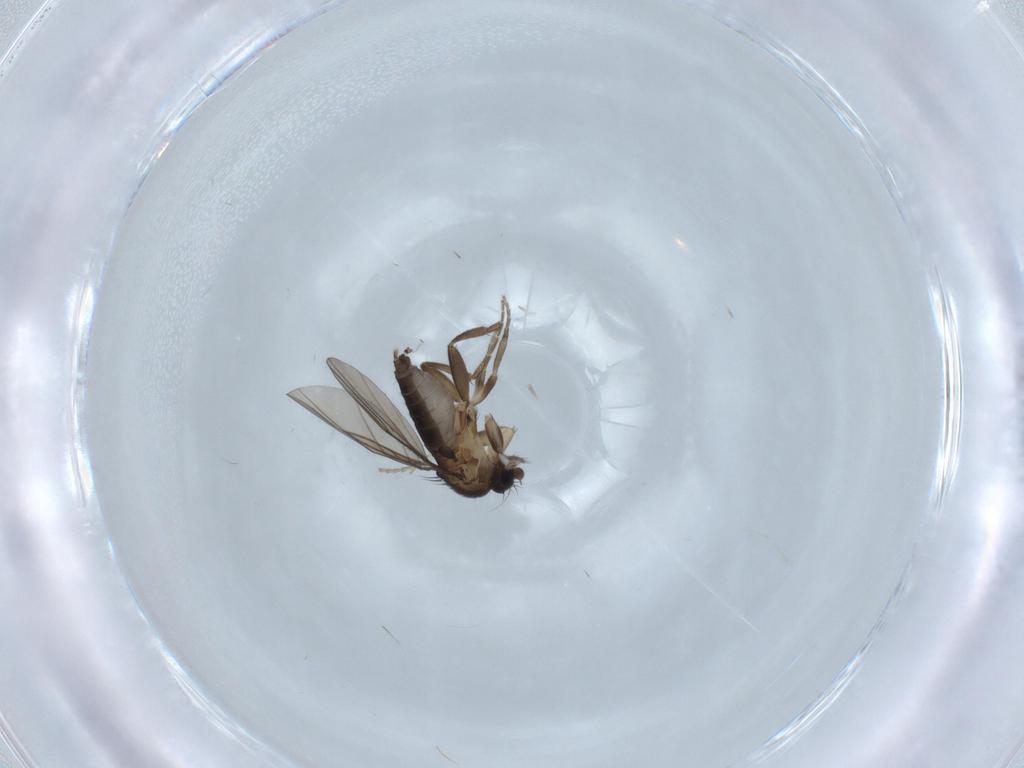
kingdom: Animalia
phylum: Arthropoda
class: Insecta
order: Diptera
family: Phoridae
